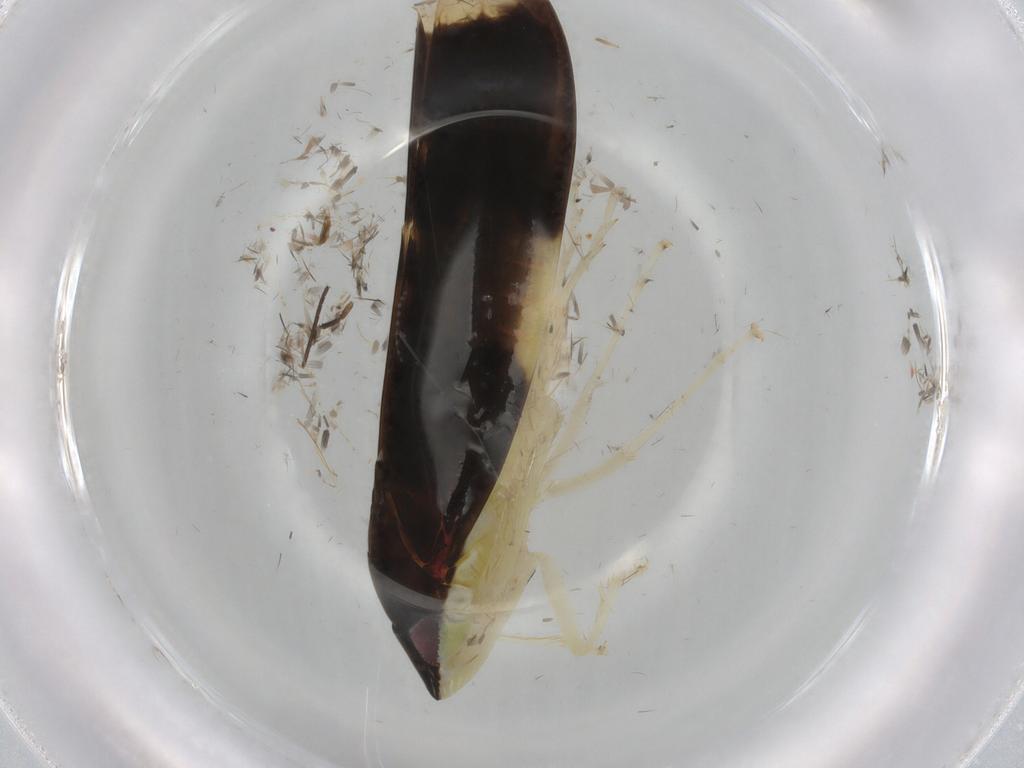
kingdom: Animalia
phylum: Arthropoda
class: Insecta
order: Hemiptera
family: Cicadellidae
